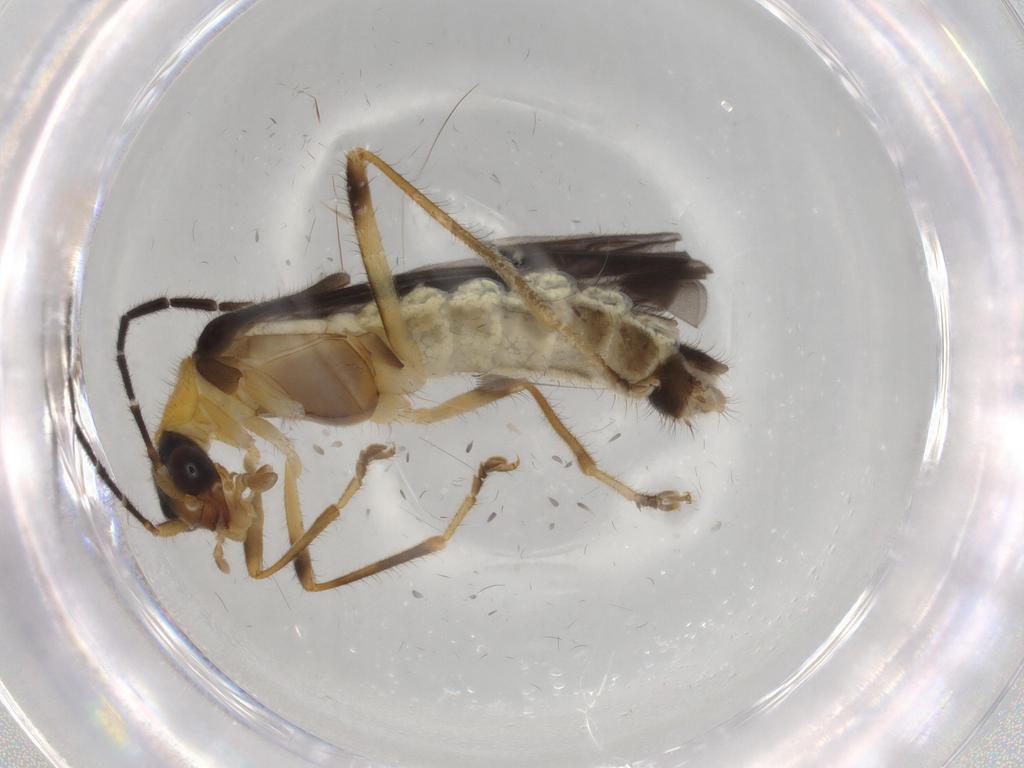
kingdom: Animalia
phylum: Arthropoda
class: Insecta
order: Coleoptera
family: Cantharidae
